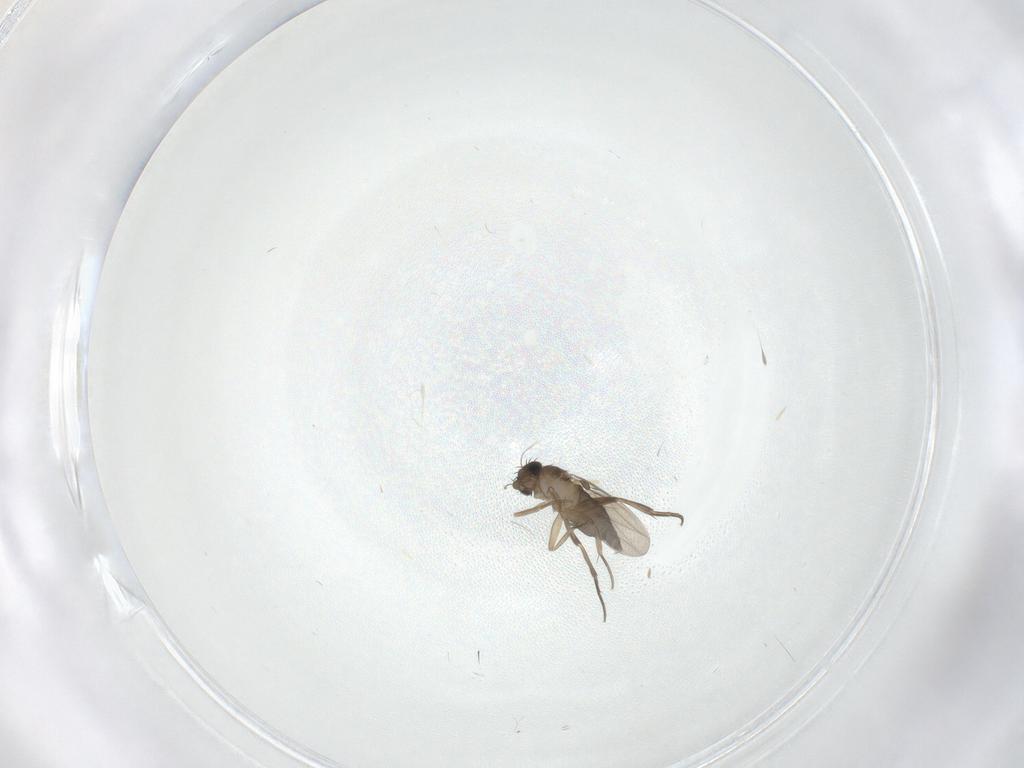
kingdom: Animalia
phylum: Arthropoda
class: Insecta
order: Diptera
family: Phoridae
